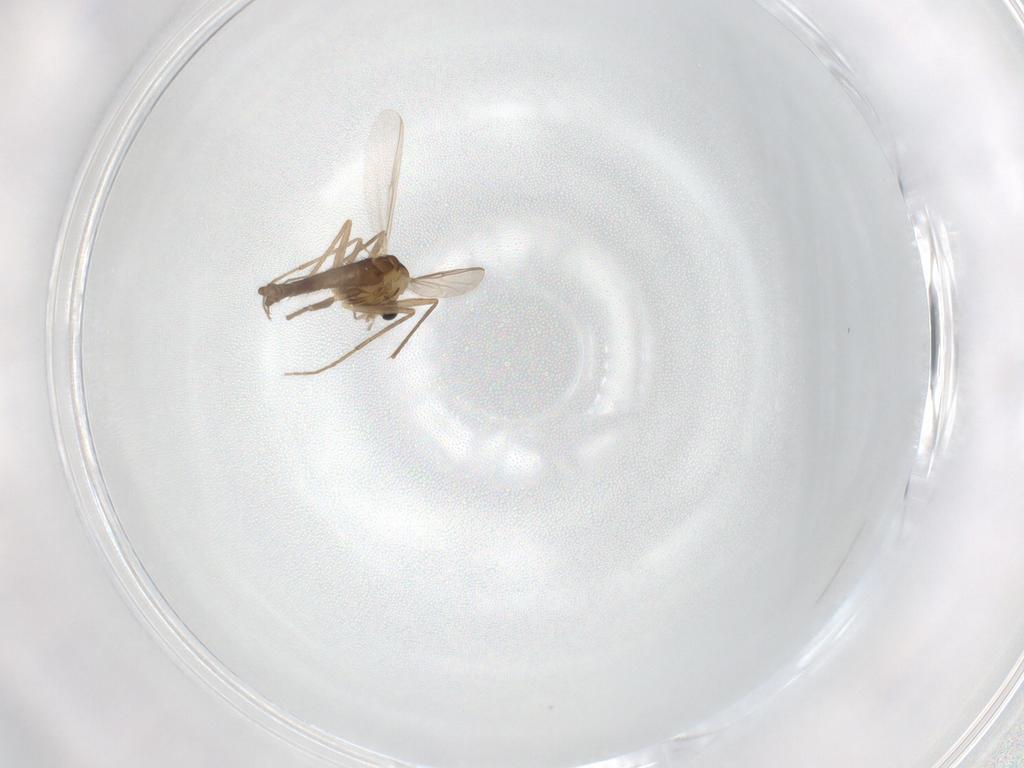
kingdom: Animalia
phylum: Arthropoda
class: Insecta
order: Diptera
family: Chironomidae
